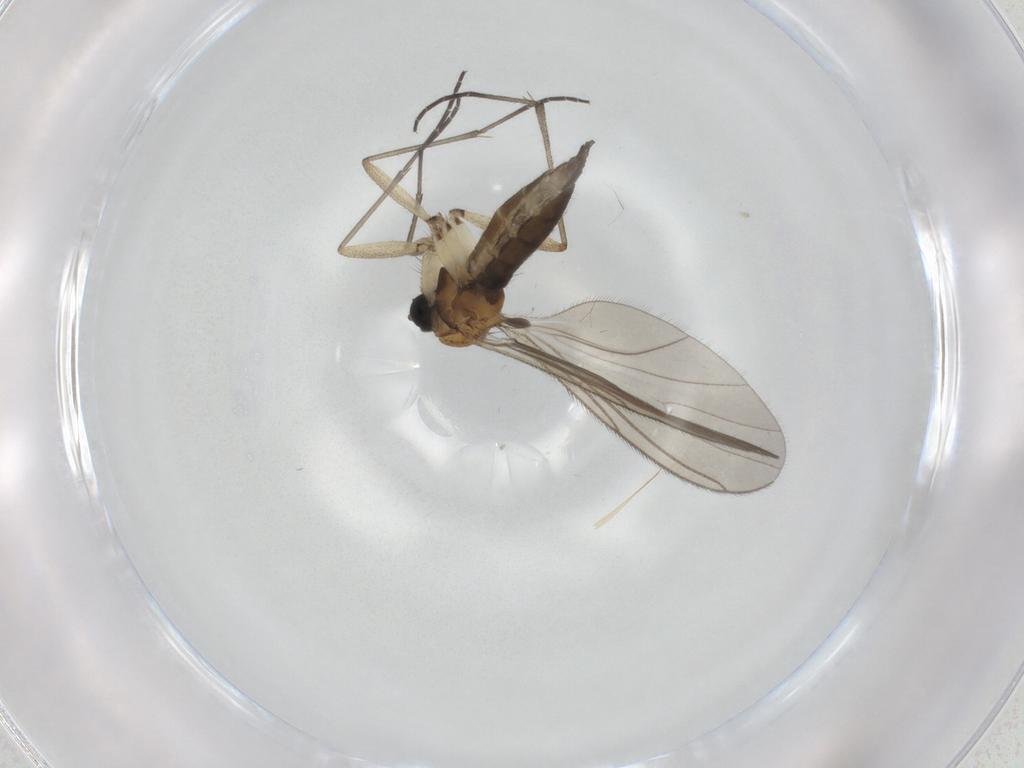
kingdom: Animalia
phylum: Arthropoda
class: Insecta
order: Diptera
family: Sciaridae
